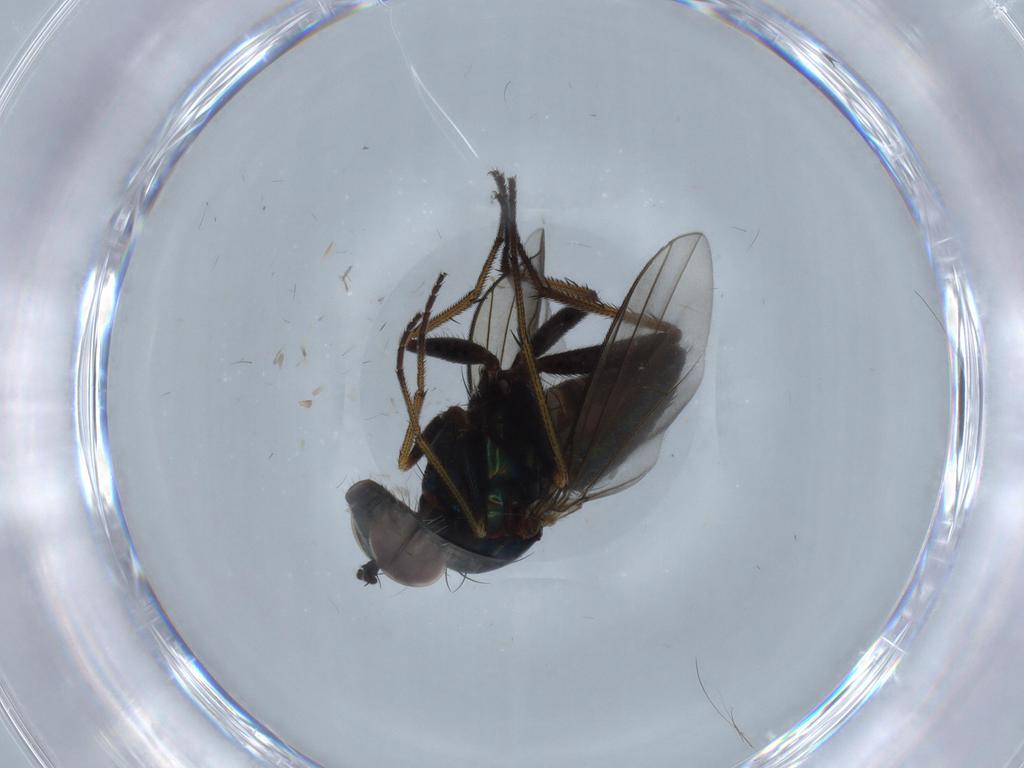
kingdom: Animalia
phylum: Arthropoda
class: Insecta
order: Diptera
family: Dolichopodidae
